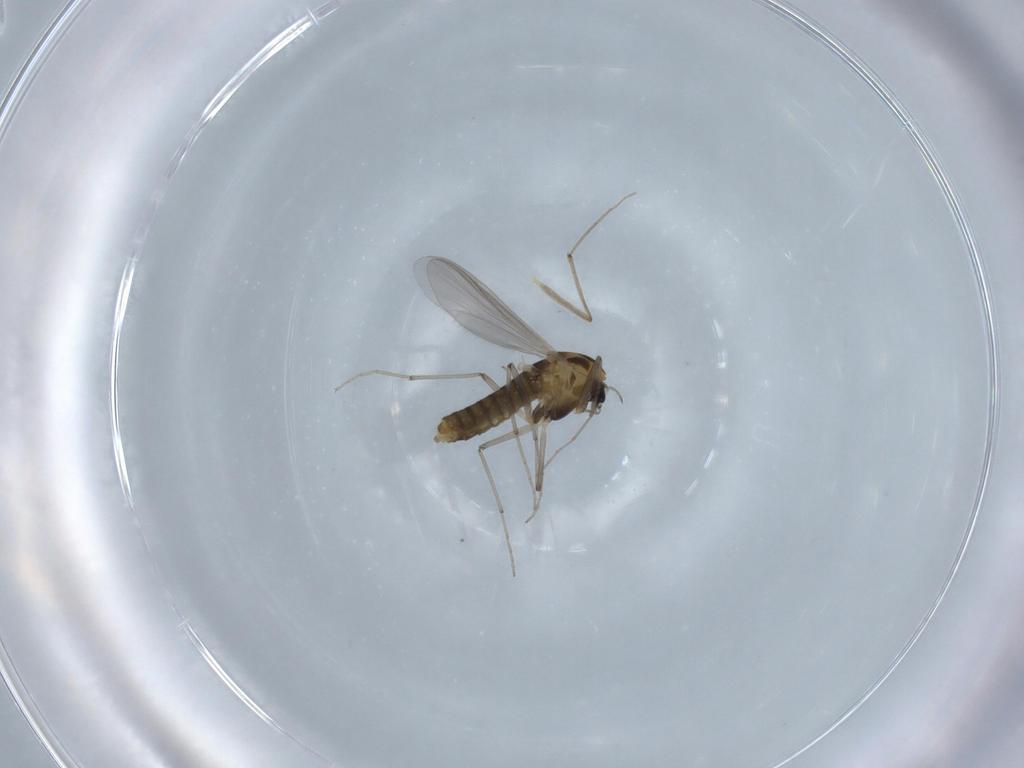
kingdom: Animalia
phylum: Arthropoda
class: Insecta
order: Diptera
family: Chironomidae
